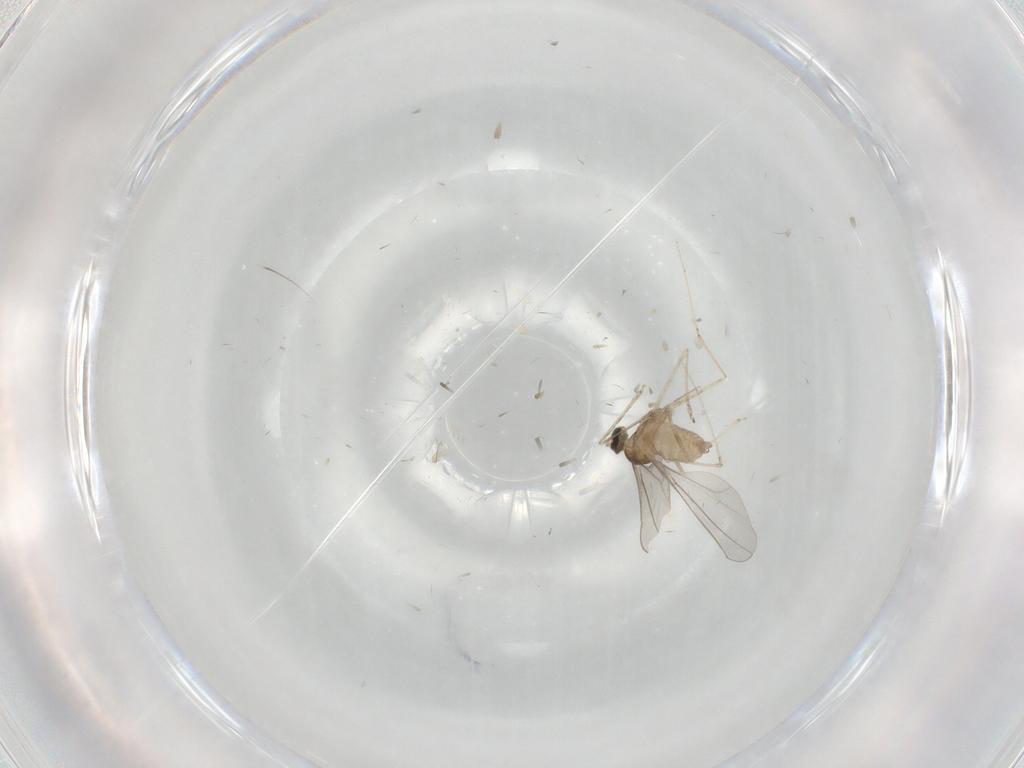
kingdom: Animalia
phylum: Arthropoda
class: Insecta
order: Diptera
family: Cecidomyiidae
